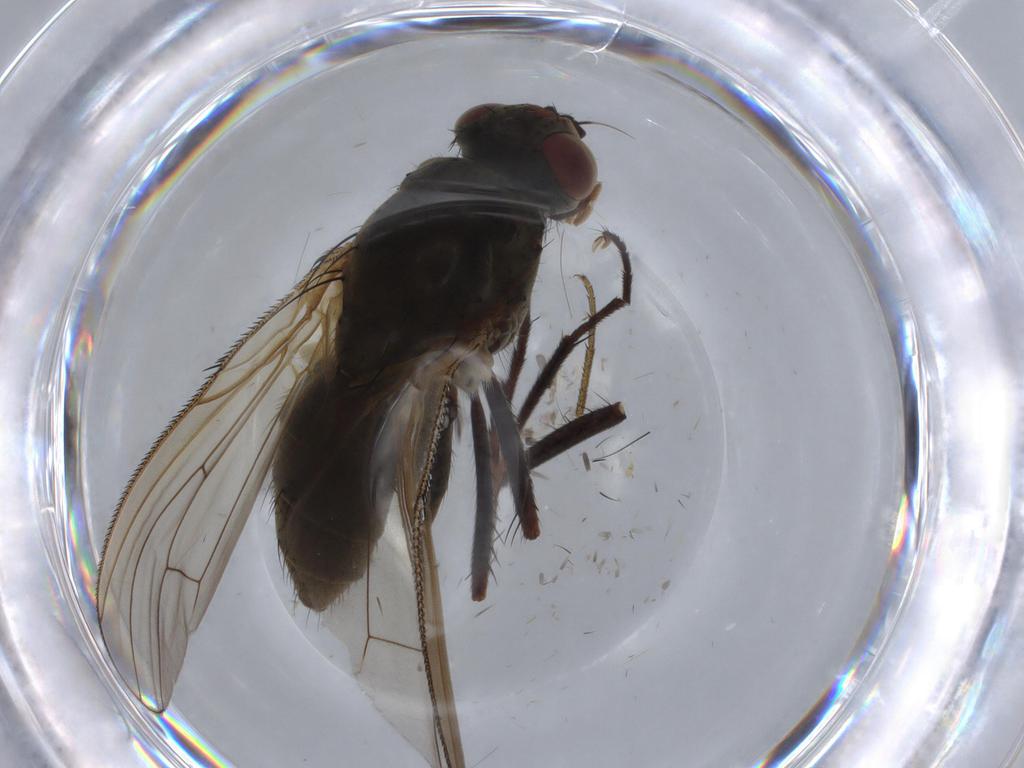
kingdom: Animalia
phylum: Arthropoda
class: Insecta
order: Diptera
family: Anthomyiidae
